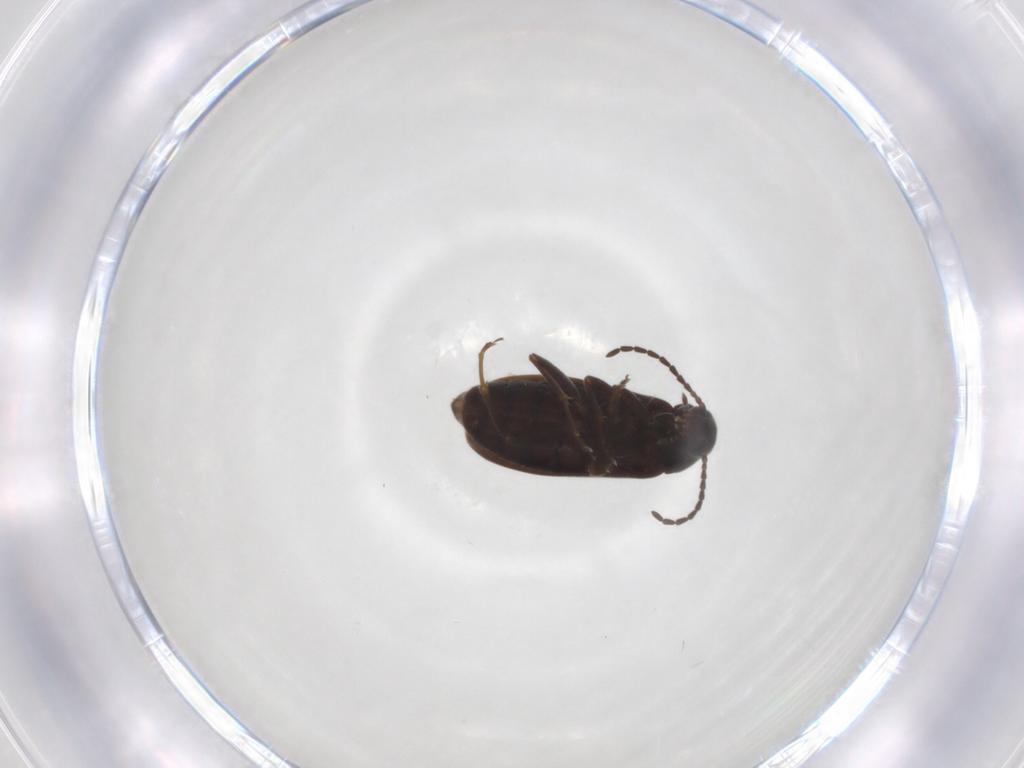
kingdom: Animalia
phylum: Arthropoda
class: Insecta
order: Coleoptera
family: Scraptiidae
